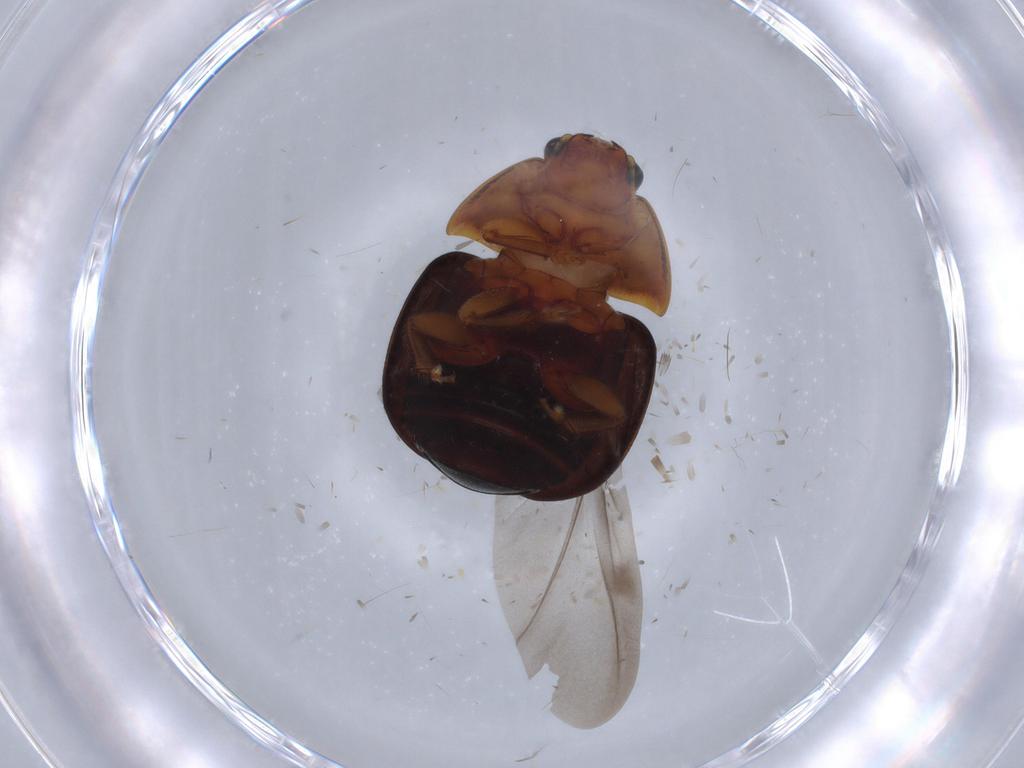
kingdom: Animalia
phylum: Arthropoda
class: Insecta
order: Coleoptera
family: Nitidulidae
